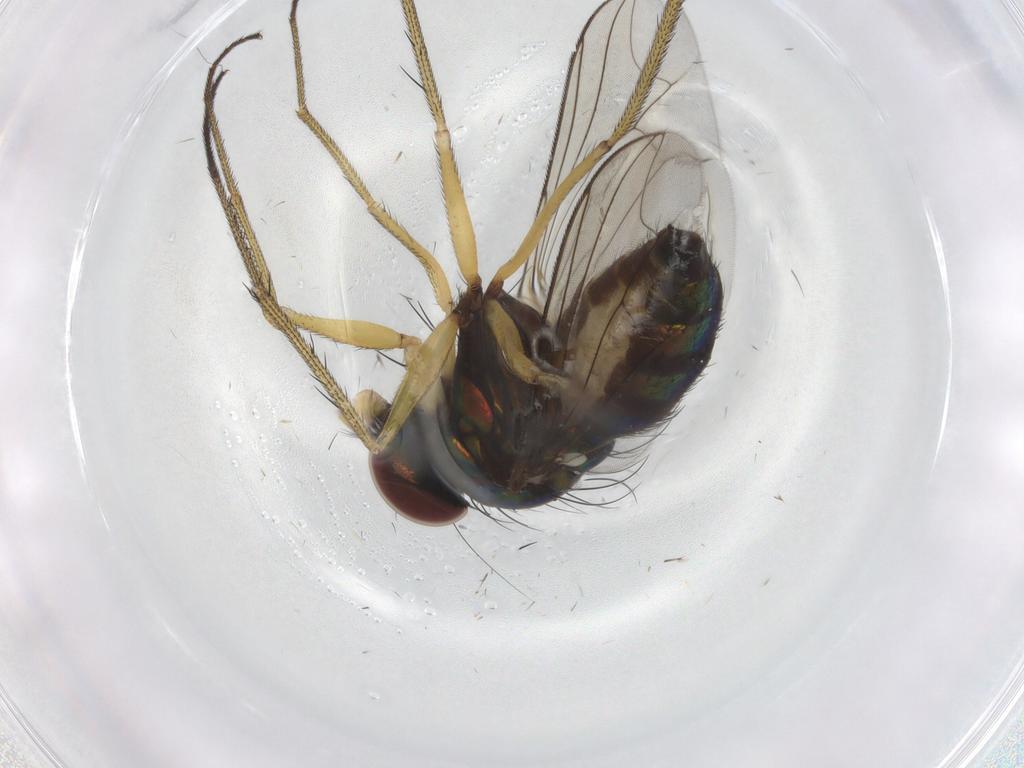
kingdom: Animalia
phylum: Arthropoda
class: Insecta
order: Diptera
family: Dolichopodidae
